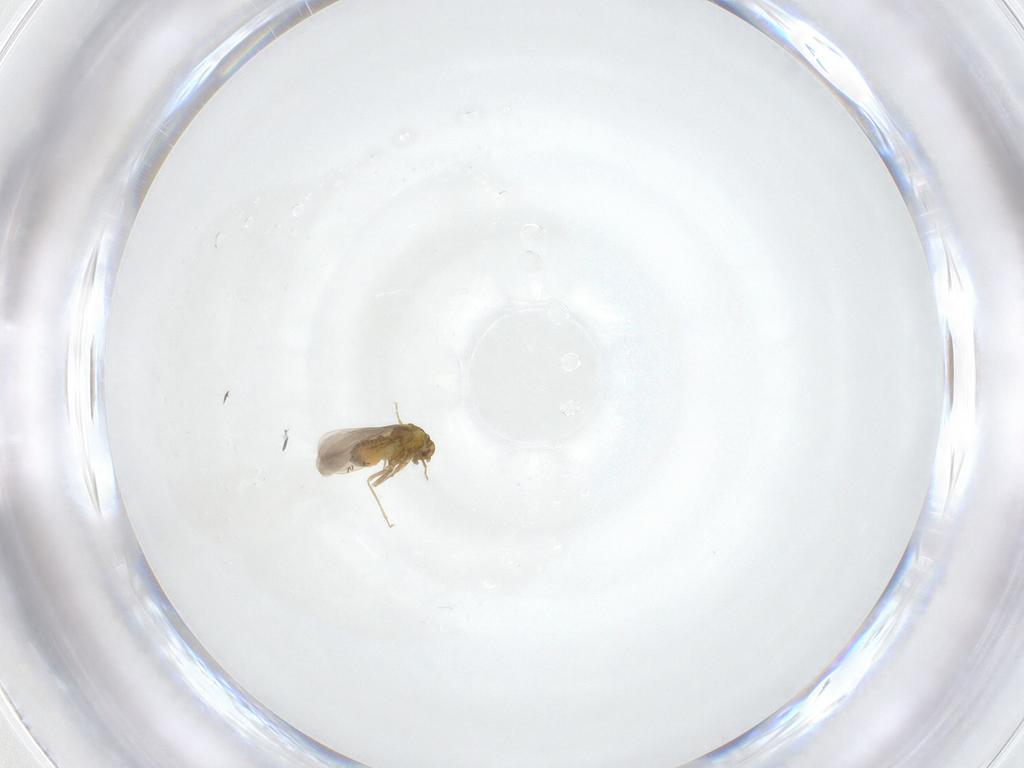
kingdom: Animalia
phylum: Arthropoda
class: Insecta
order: Hemiptera
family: Aleyrodidae
